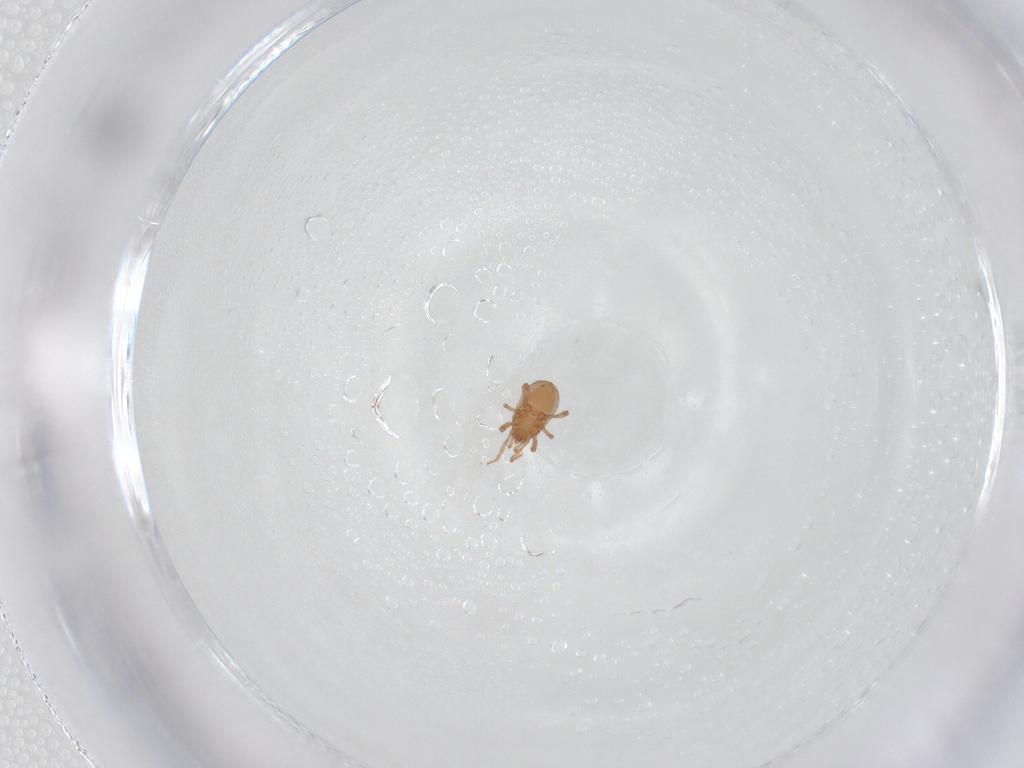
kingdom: Animalia
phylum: Arthropoda
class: Arachnida
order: Mesostigmata
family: Ologamasidae
